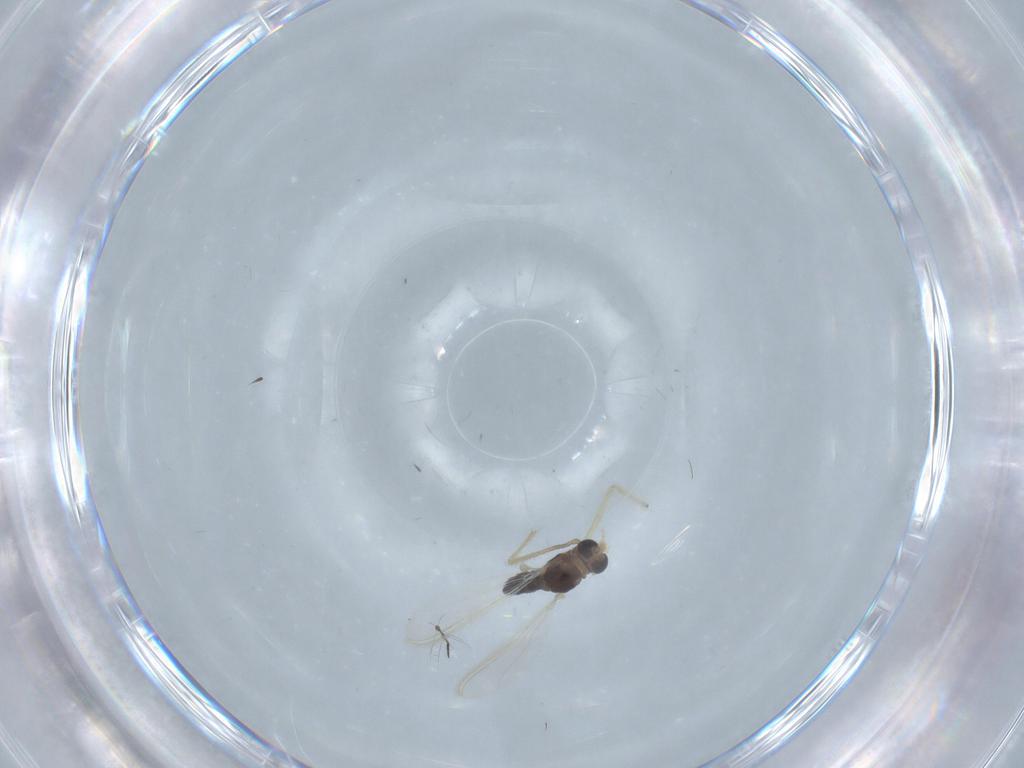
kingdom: Animalia
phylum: Arthropoda
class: Insecta
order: Diptera
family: Chironomidae
